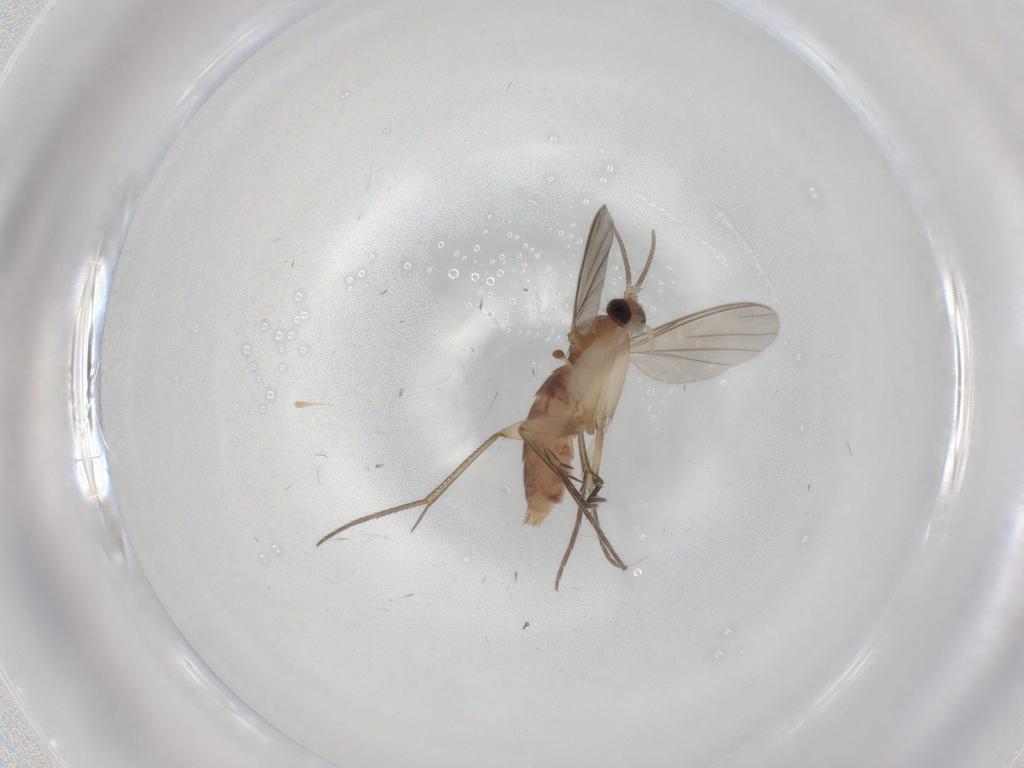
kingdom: Animalia
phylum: Arthropoda
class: Insecta
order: Diptera
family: Mycetophilidae
